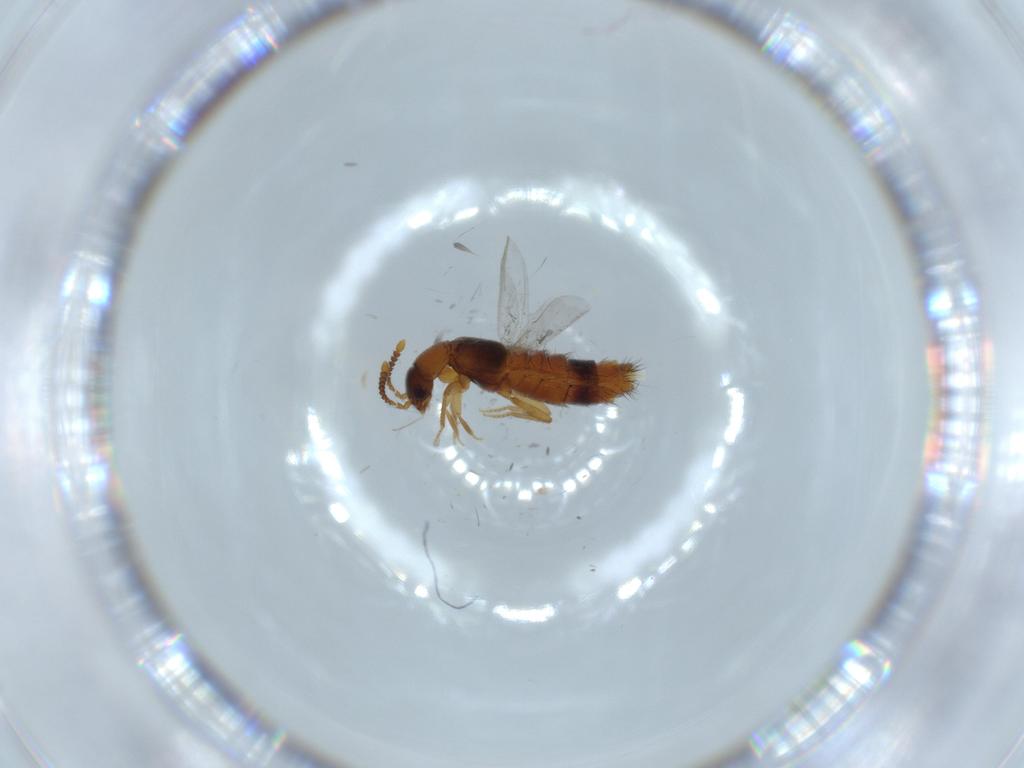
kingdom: Animalia
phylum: Arthropoda
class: Insecta
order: Coleoptera
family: Staphylinidae
